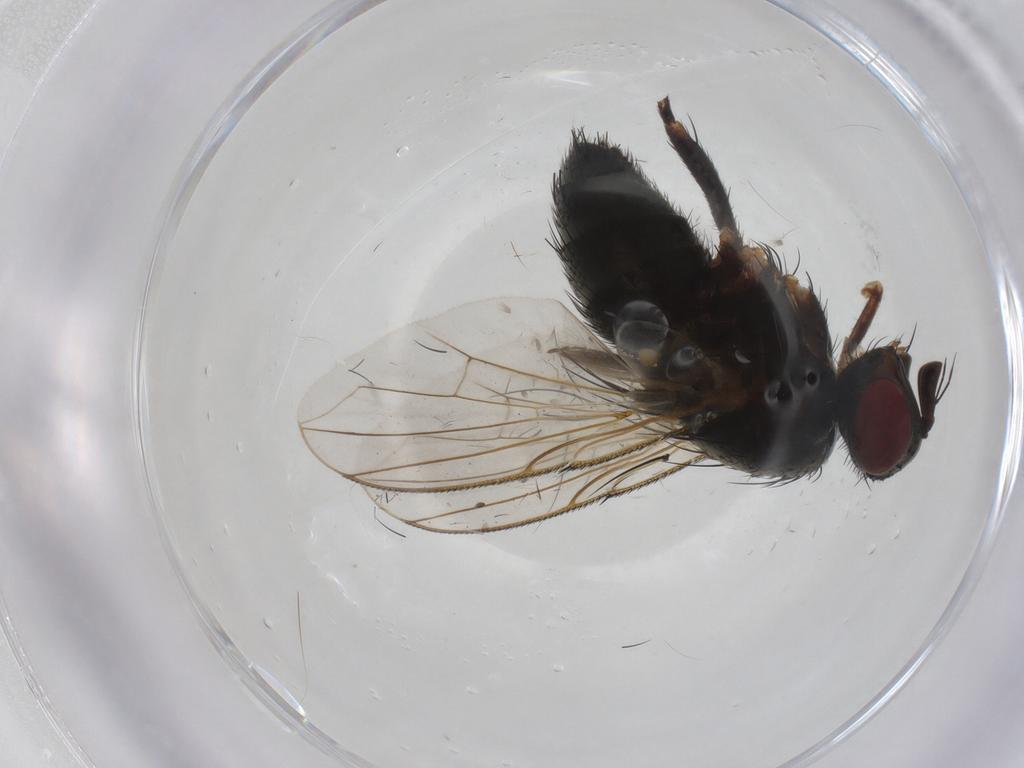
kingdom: Animalia
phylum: Arthropoda
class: Insecta
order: Diptera
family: Tachinidae
